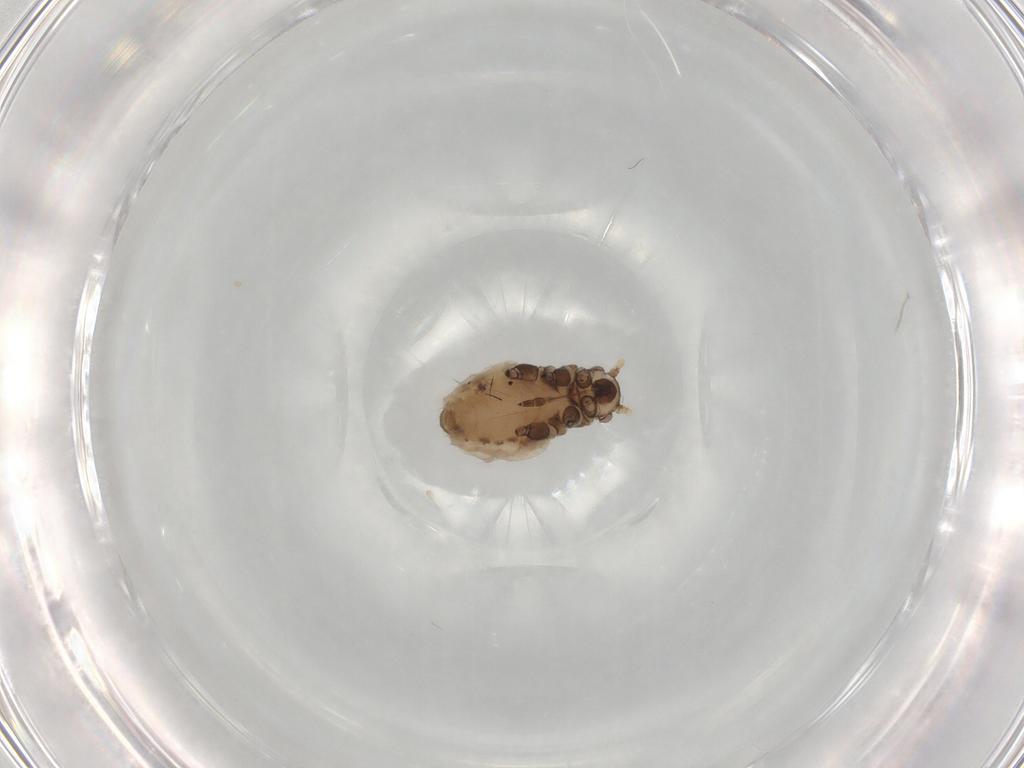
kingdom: Animalia
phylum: Arthropoda
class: Insecta
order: Hemiptera
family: Aphididae
